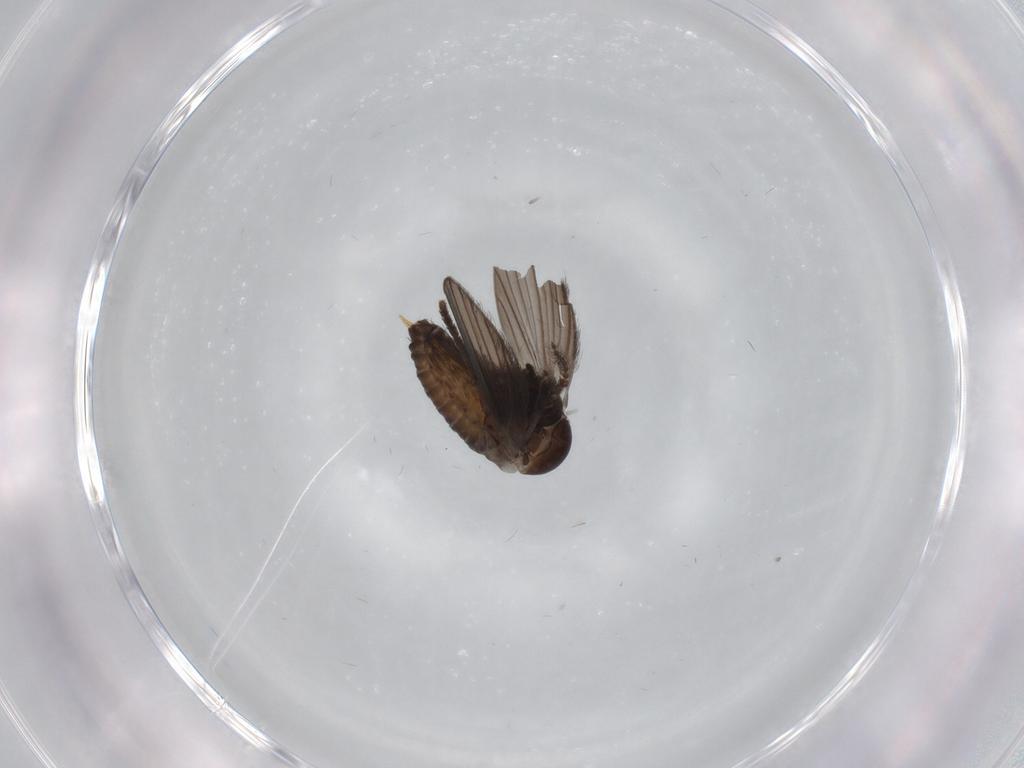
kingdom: Animalia
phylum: Arthropoda
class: Insecta
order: Diptera
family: Psychodidae
